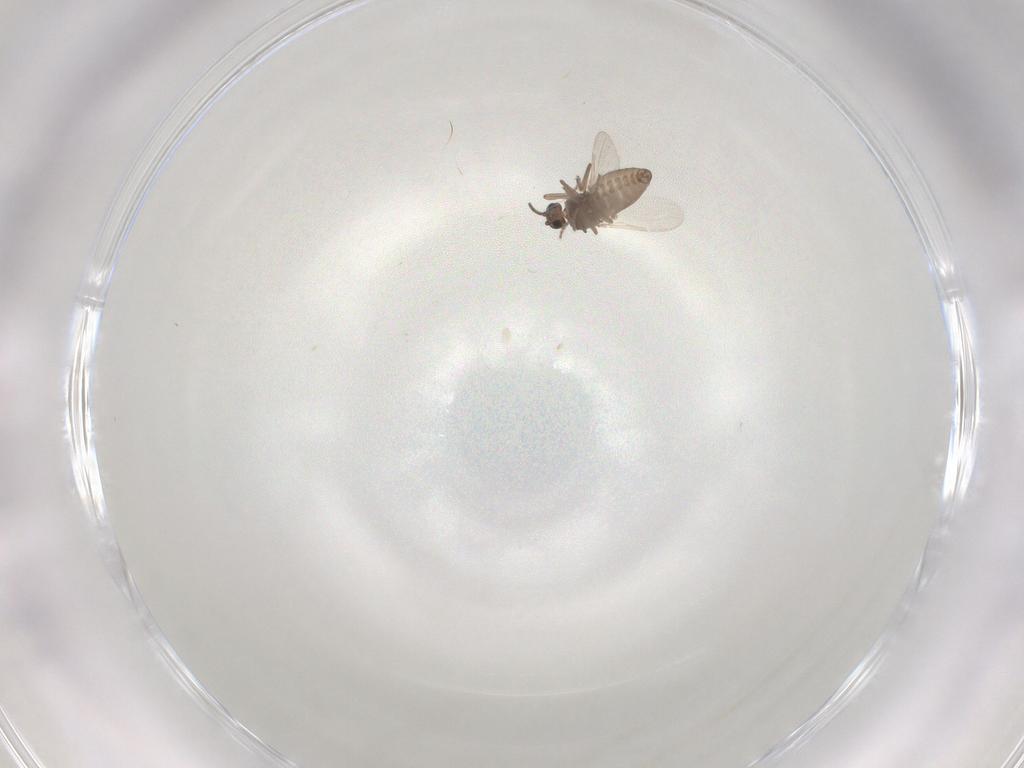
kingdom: Animalia
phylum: Arthropoda
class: Insecta
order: Diptera
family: Ceratopogonidae
